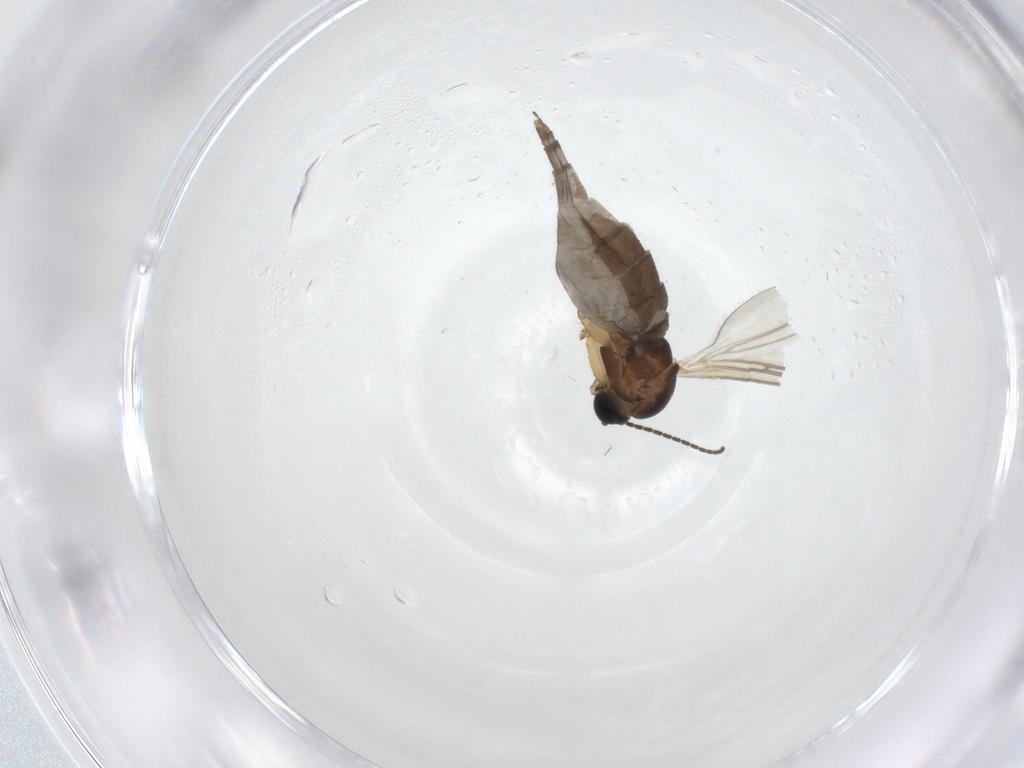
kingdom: Animalia
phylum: Arthropoda
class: Insecta
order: Diptera
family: Sciaridae
